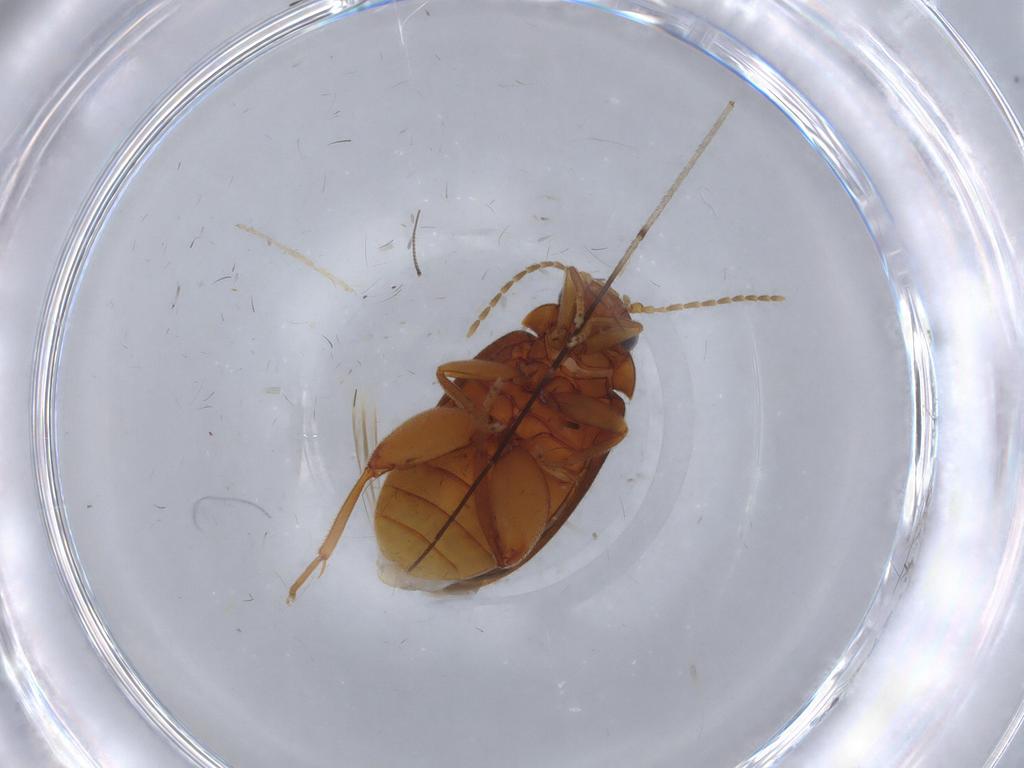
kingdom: Animalia
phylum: Arthropoda
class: Insecta
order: Coleoptera
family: Scirtidae
